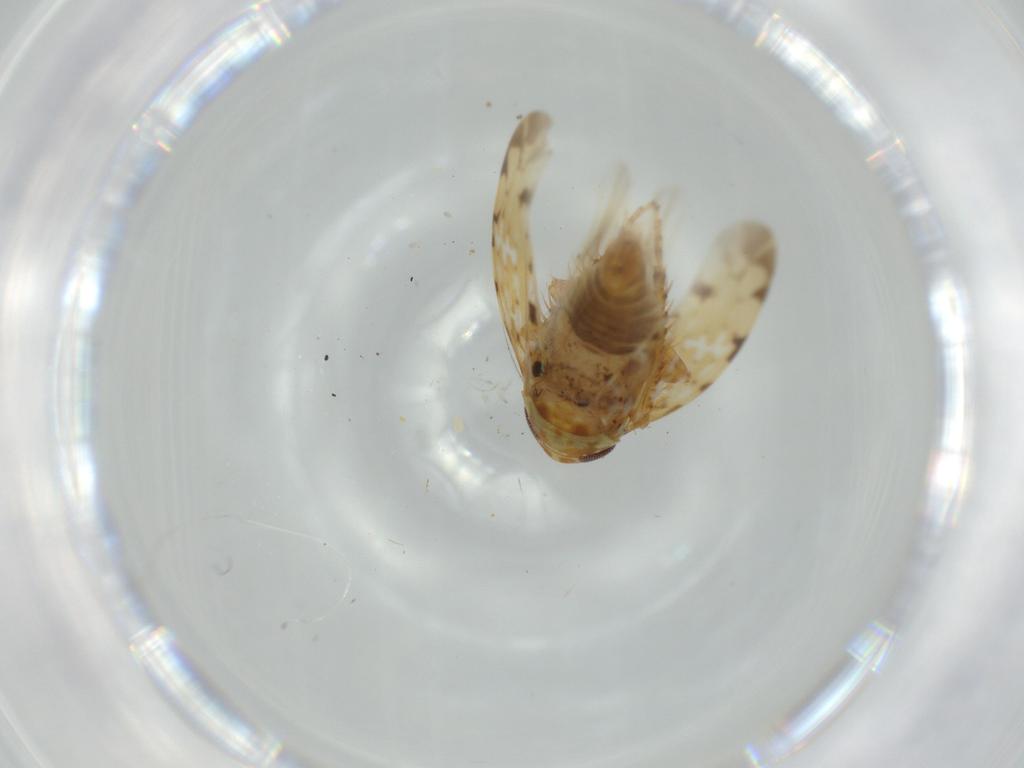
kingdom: Animalia
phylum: Arthropoda
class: Insecta
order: Hemiptera
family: Cicadellidae
